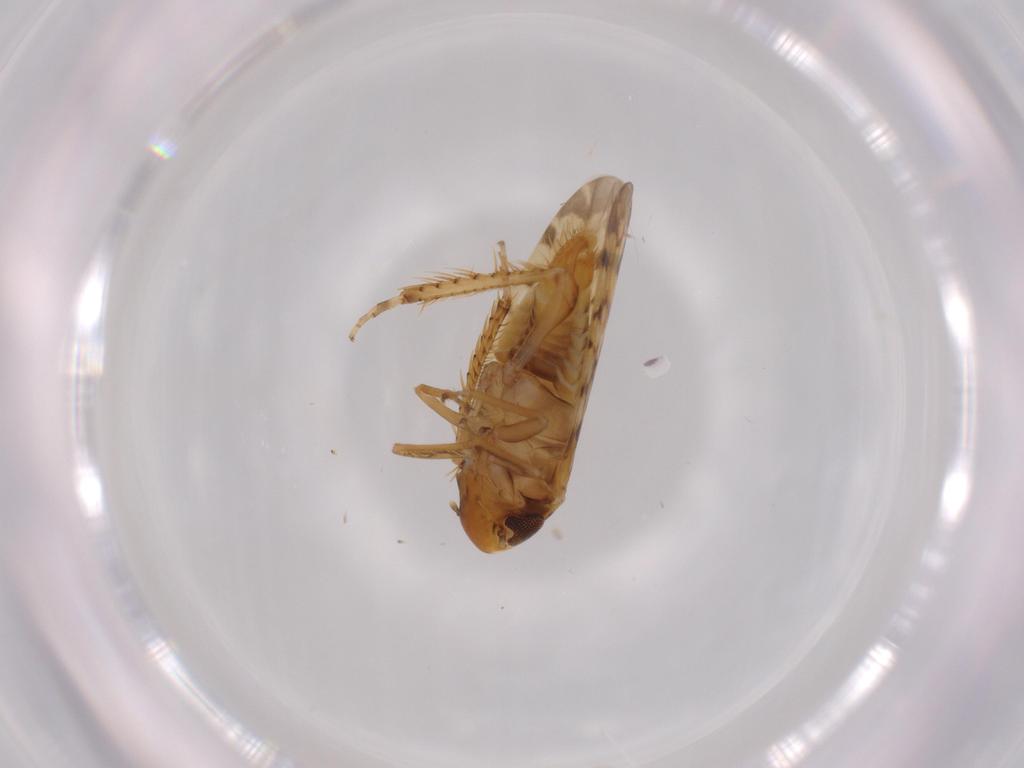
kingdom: Animalia
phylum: Arthropoda
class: Insecta
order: Hemiptera
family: Cicadellidae
